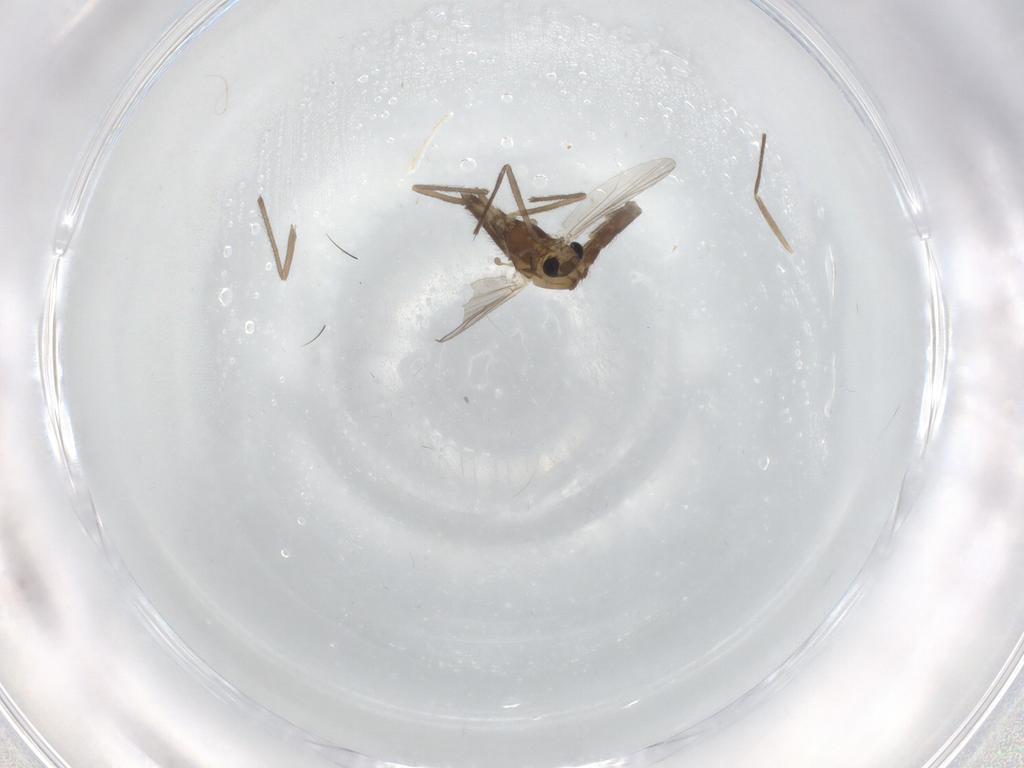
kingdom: Animalia
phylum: Arthropoda
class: Insecta
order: Diptera
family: Chironomidae
